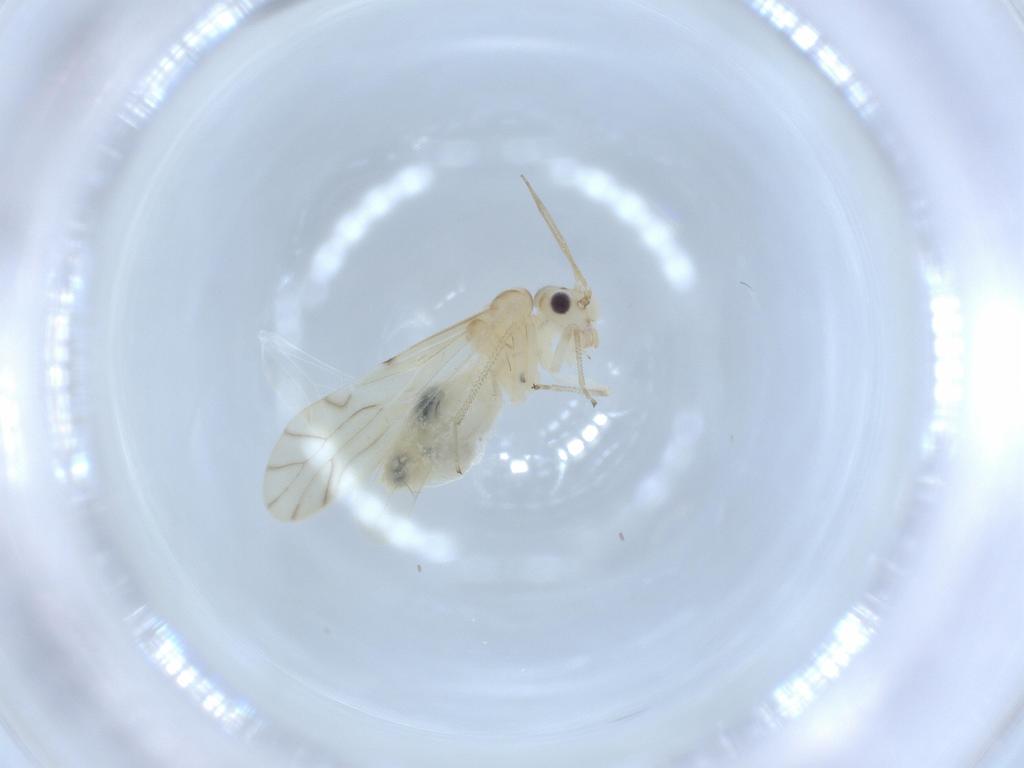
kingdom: Animalia
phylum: Arthropoda
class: Insecta
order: Psocodea
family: Caeciliusidae
